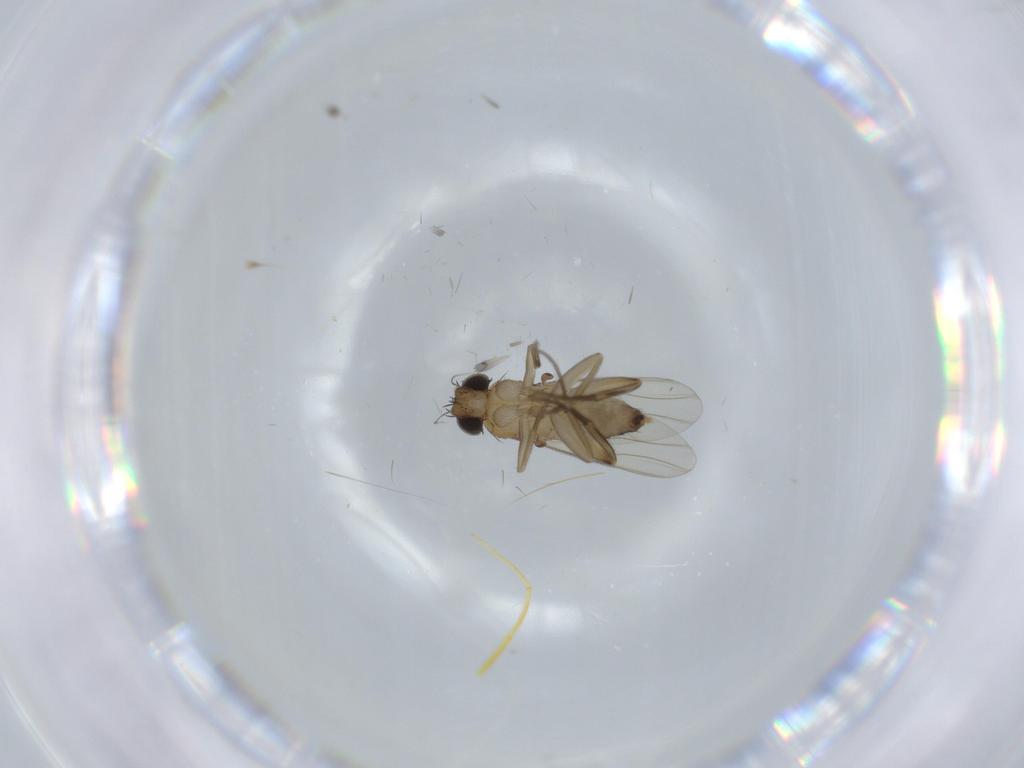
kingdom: Animalia
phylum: Arthropoda
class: Insecta
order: Diptera
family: Phoridae
